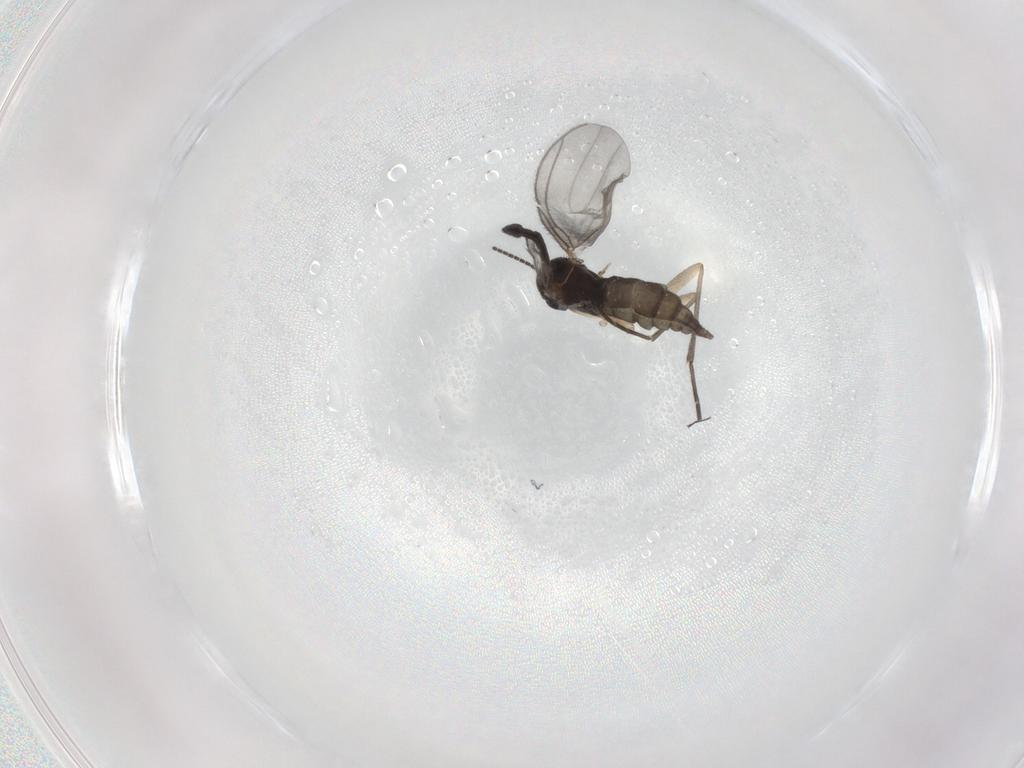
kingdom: Animalia
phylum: Arthropoda
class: Insecta
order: Diptera
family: Sciaridae
